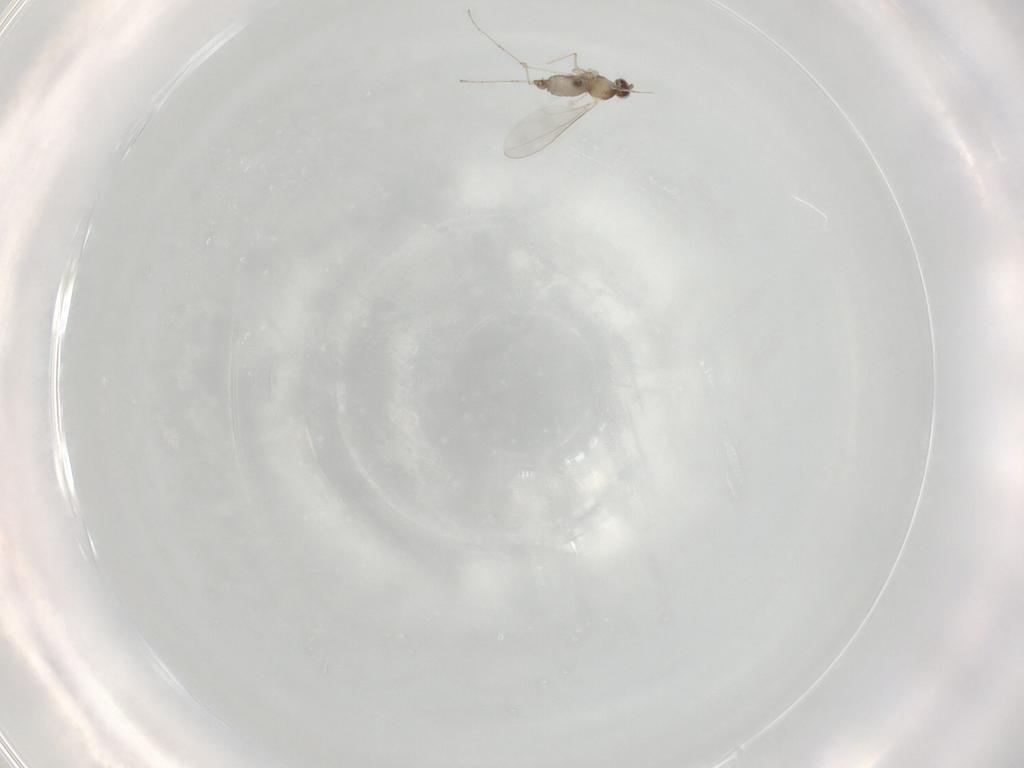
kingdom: Animalia
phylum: Arthropoda
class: Insecta
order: Diptera
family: Cecidomyiidae
